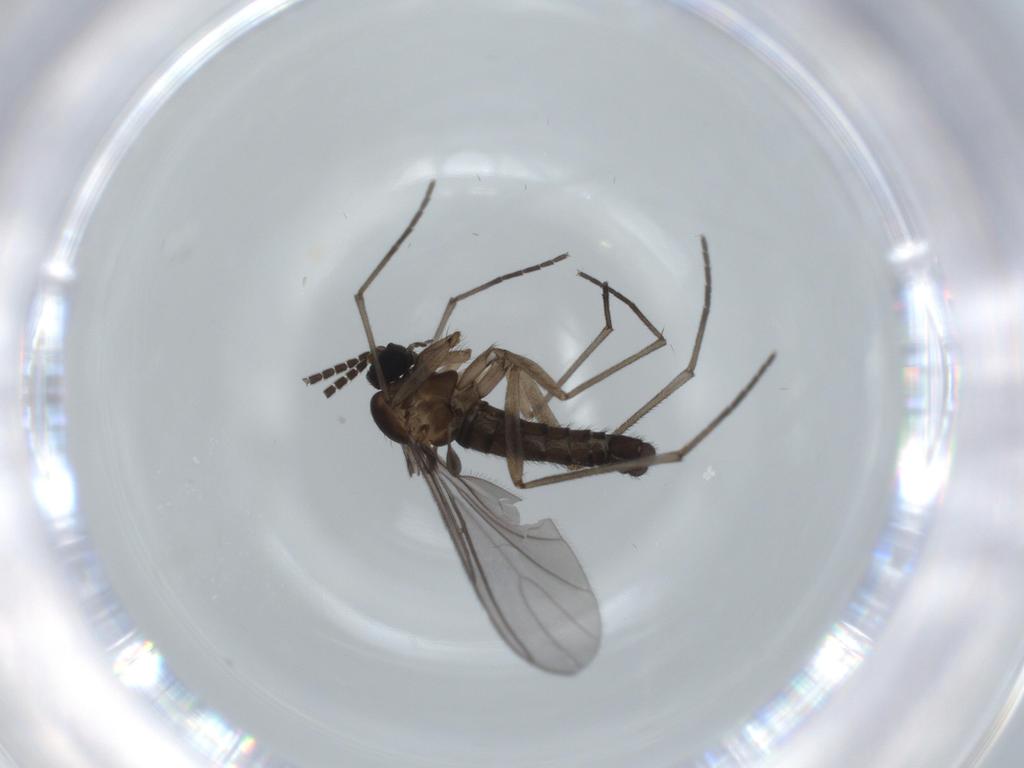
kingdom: Animalia
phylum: Arthropoda
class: Insecta
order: Diptera
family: Sciaridae
